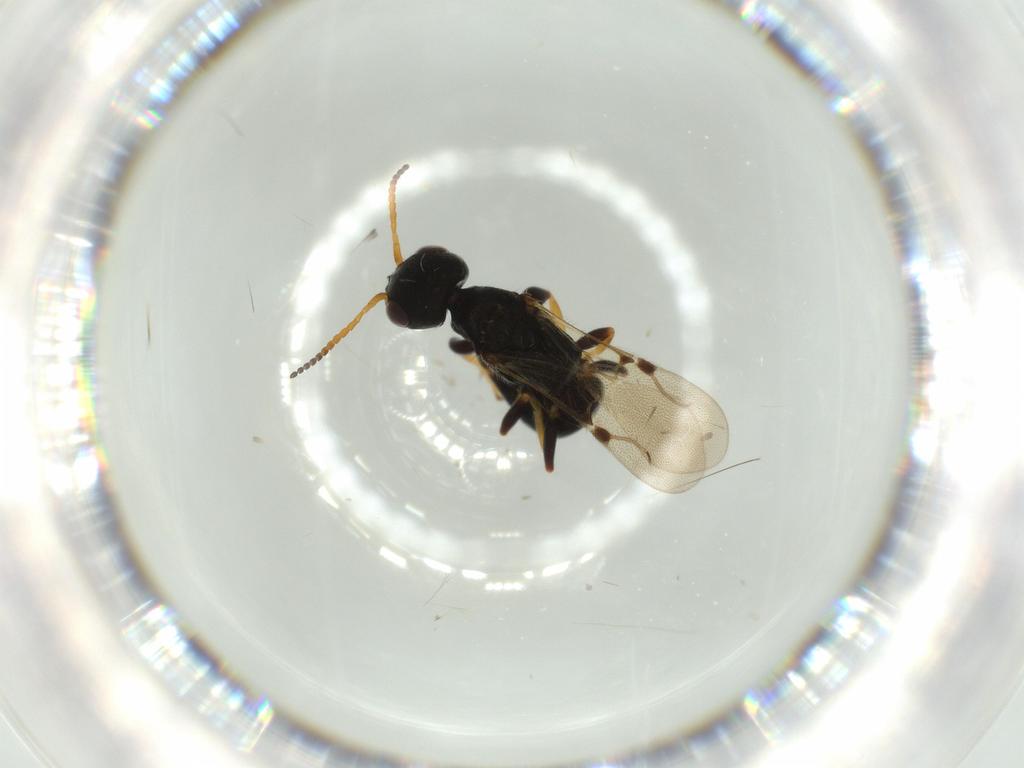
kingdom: Animalia
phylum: Arthropoda
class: Insecta
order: Hymenoptera
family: Bethylidae
